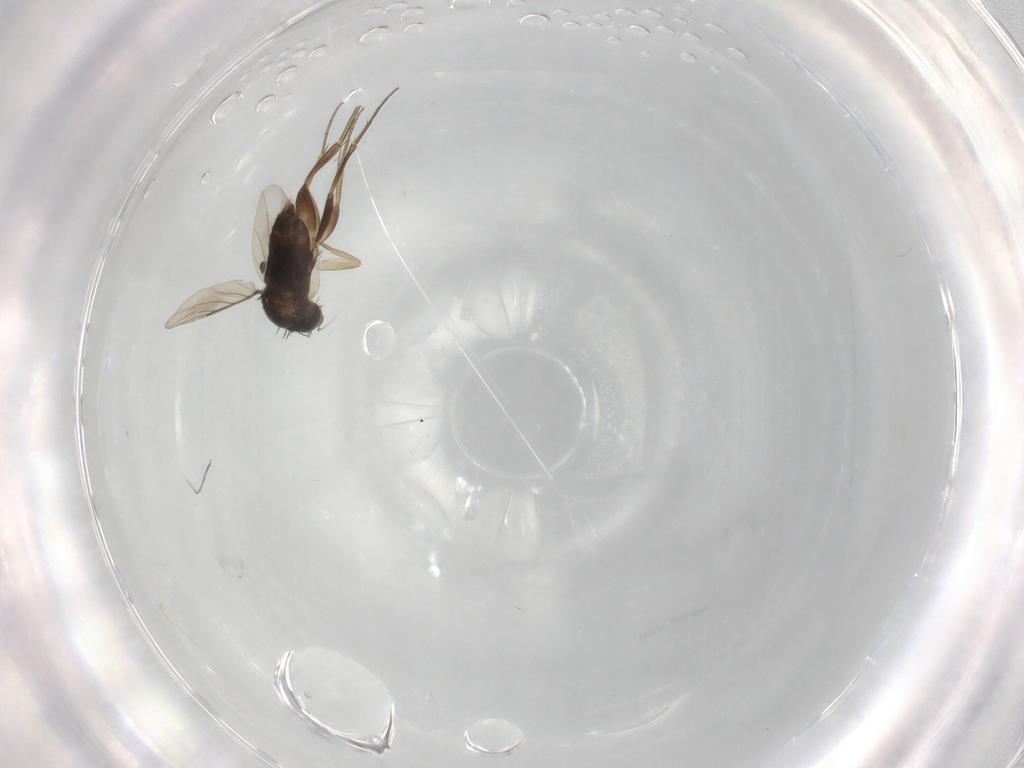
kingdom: Animalia
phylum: Arthropoda
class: Insecta
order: Diptera
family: Phoridae
